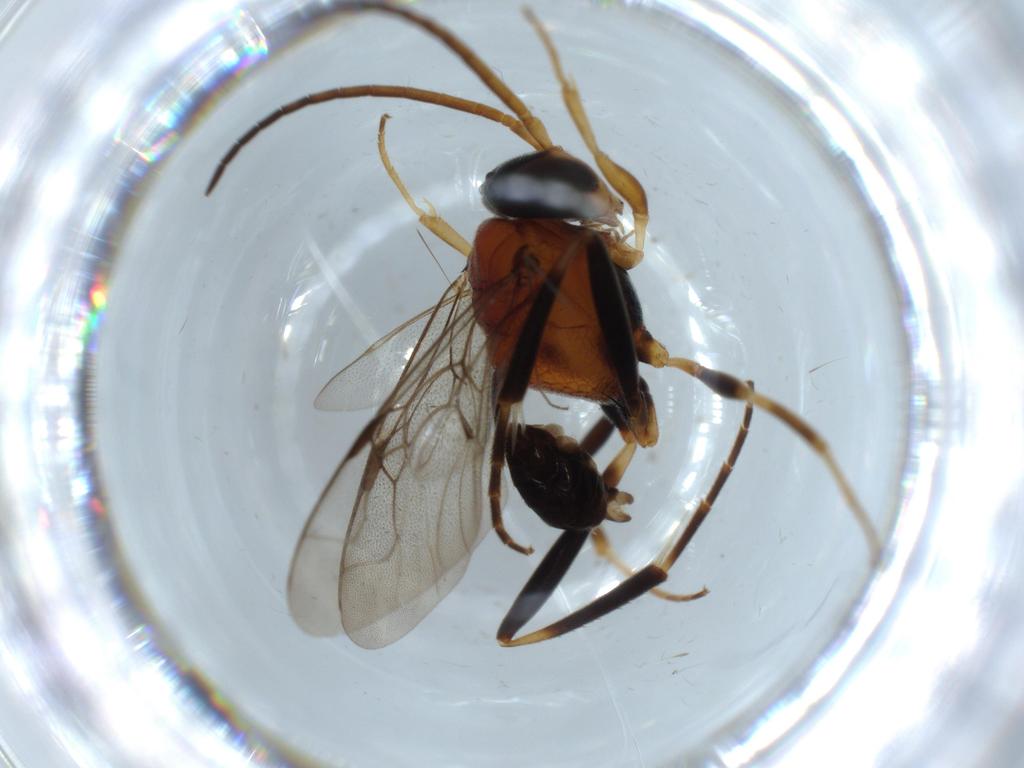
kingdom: Animalia
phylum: Arthropoda
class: Insecta
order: Hymenoptera
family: Evaniidae
